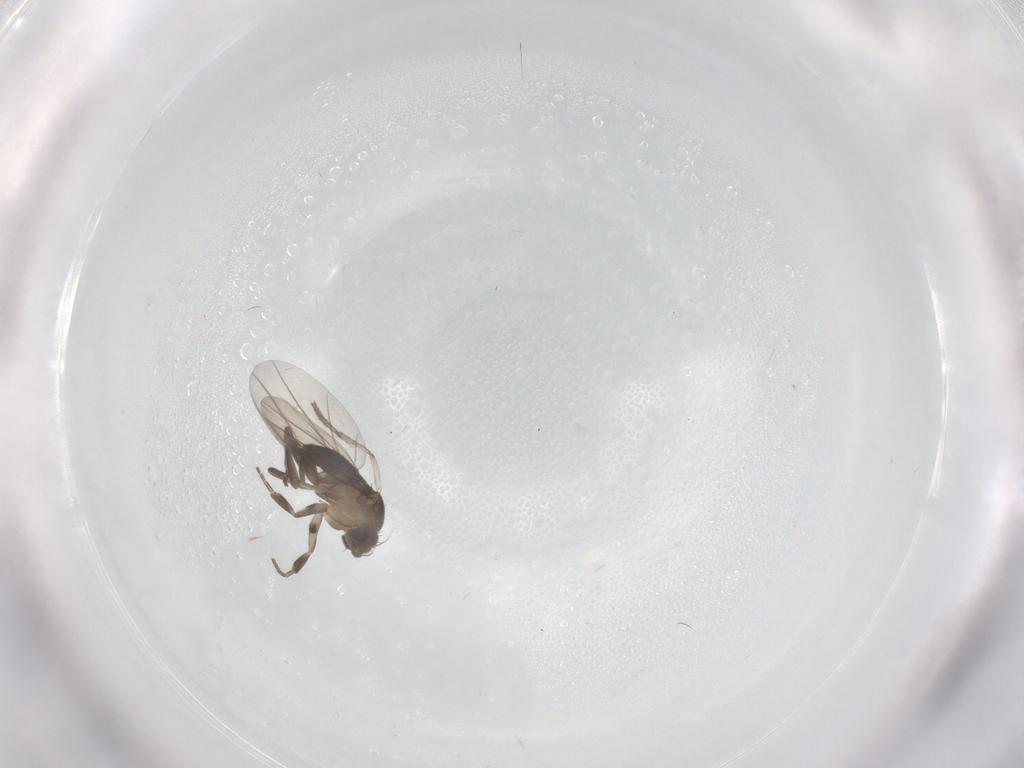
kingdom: Animalia
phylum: Arthropoda
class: Insecta
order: Diptera
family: Phoridae
